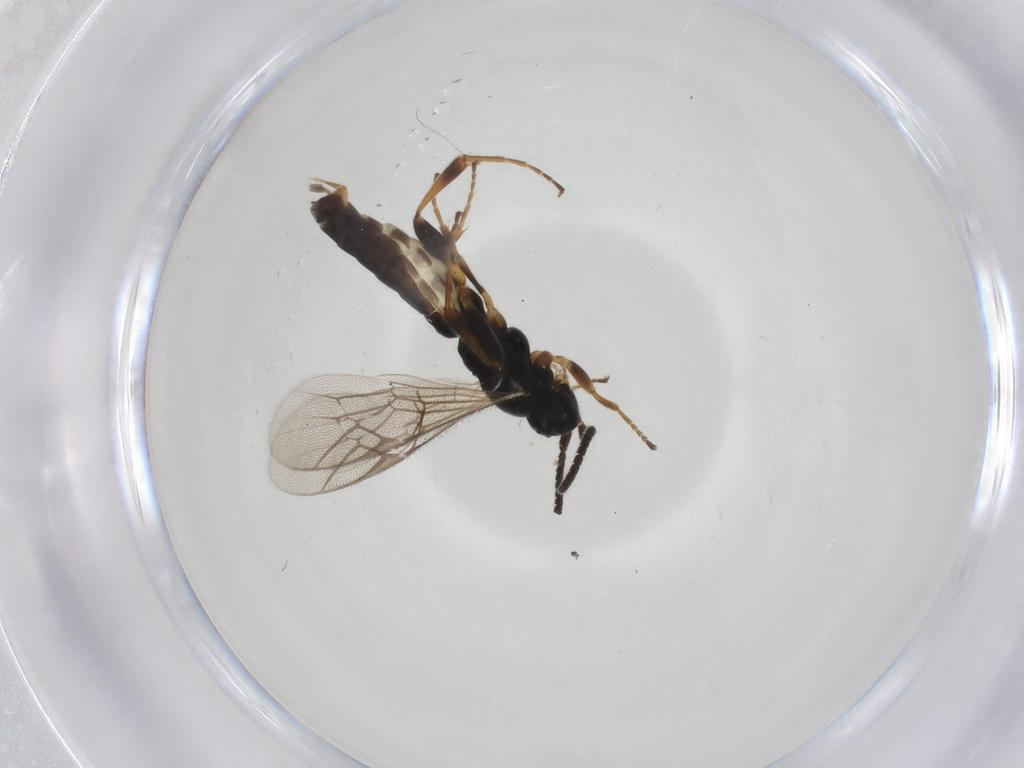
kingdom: Animalia
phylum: Arthropoda
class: Insecta
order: Hymenoptera
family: Ichneumonidae
